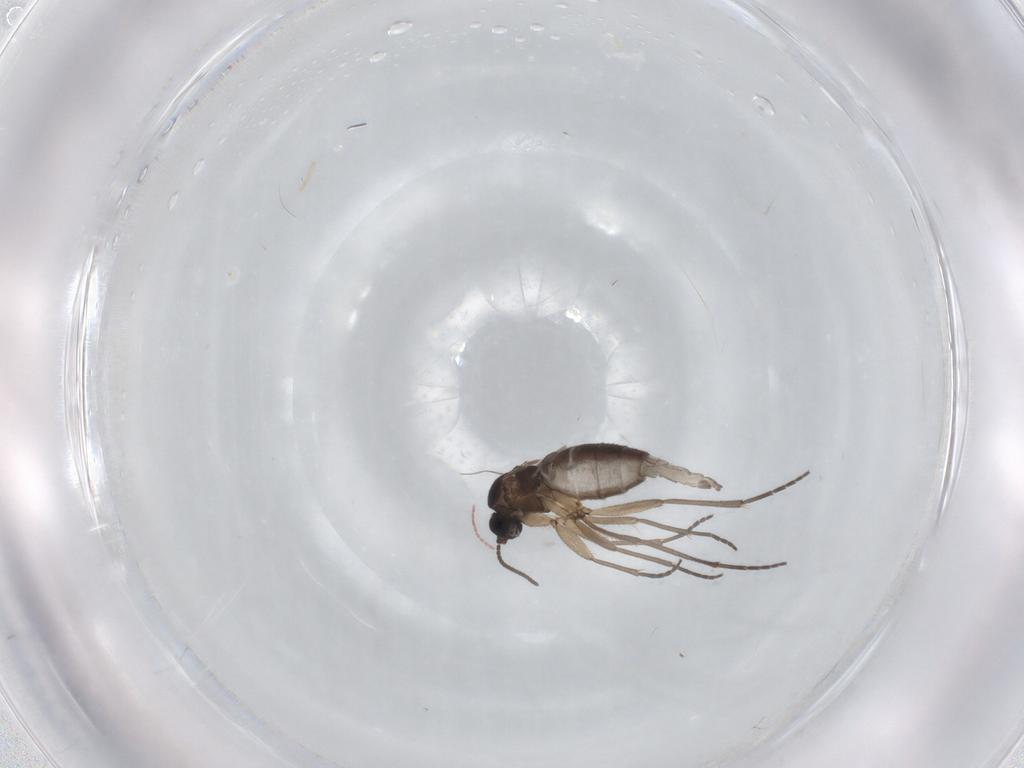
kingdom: Animalia
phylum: Arthropoda
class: Insecta
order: Diptera
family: Sciaridae
